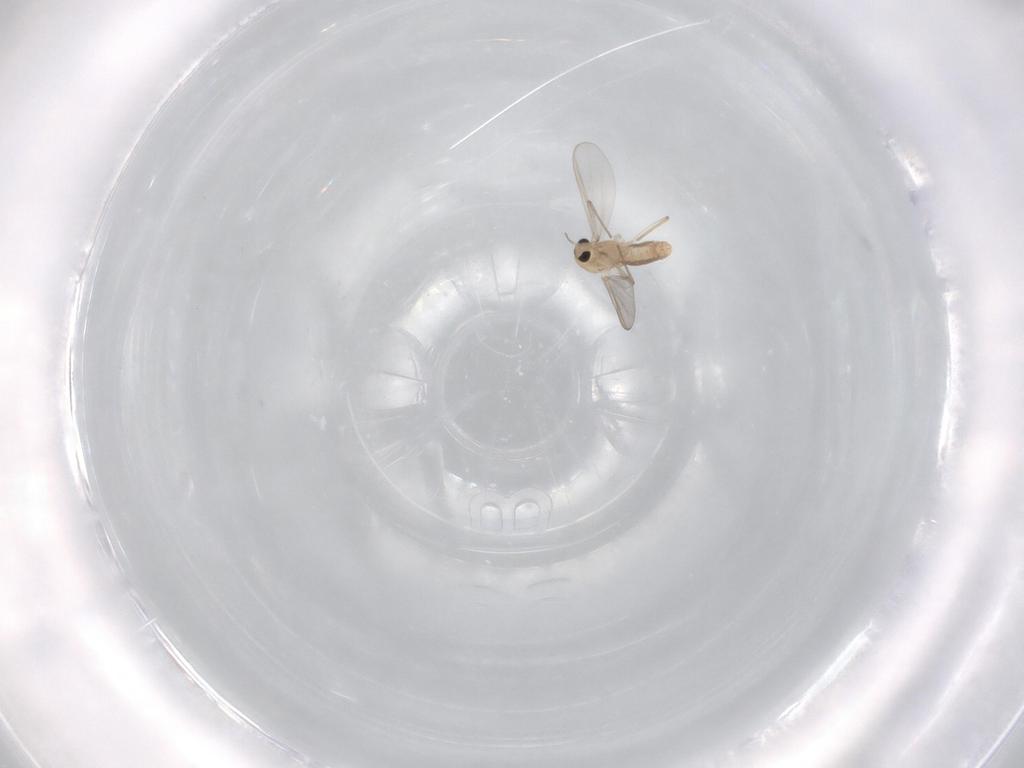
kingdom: Animalia
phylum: Arthropoda
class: Insecta
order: Diptera
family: Chironomidae
